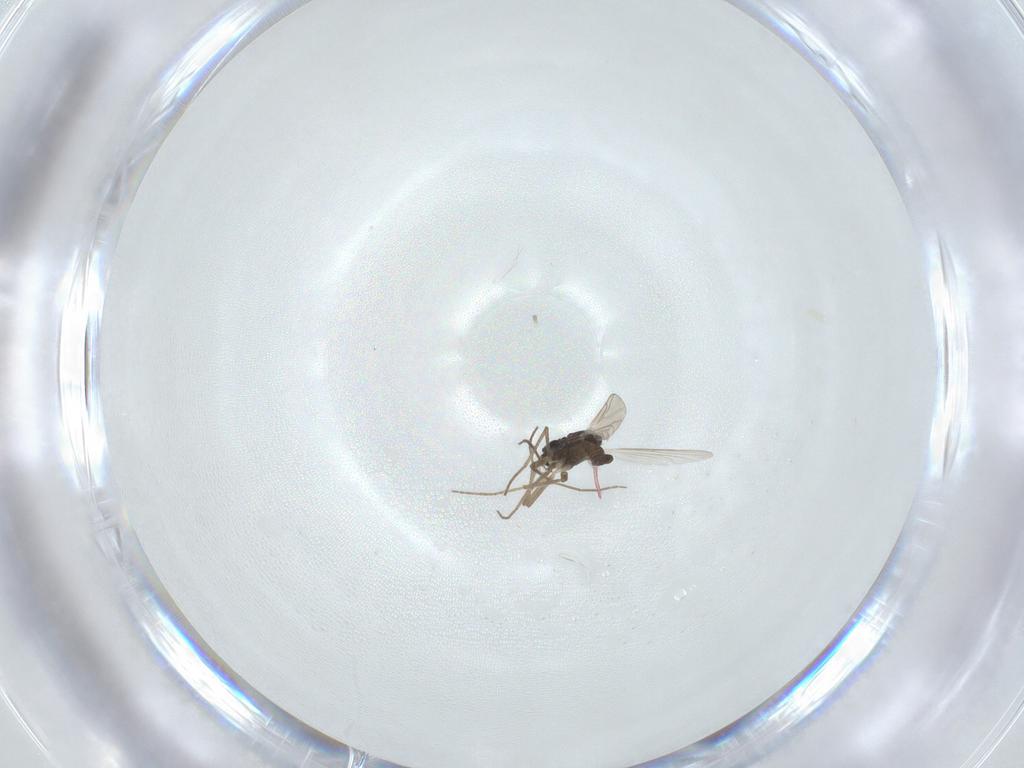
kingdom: Animalia
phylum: Arthropoda
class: Insecta
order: Diptera
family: Chironomidae
